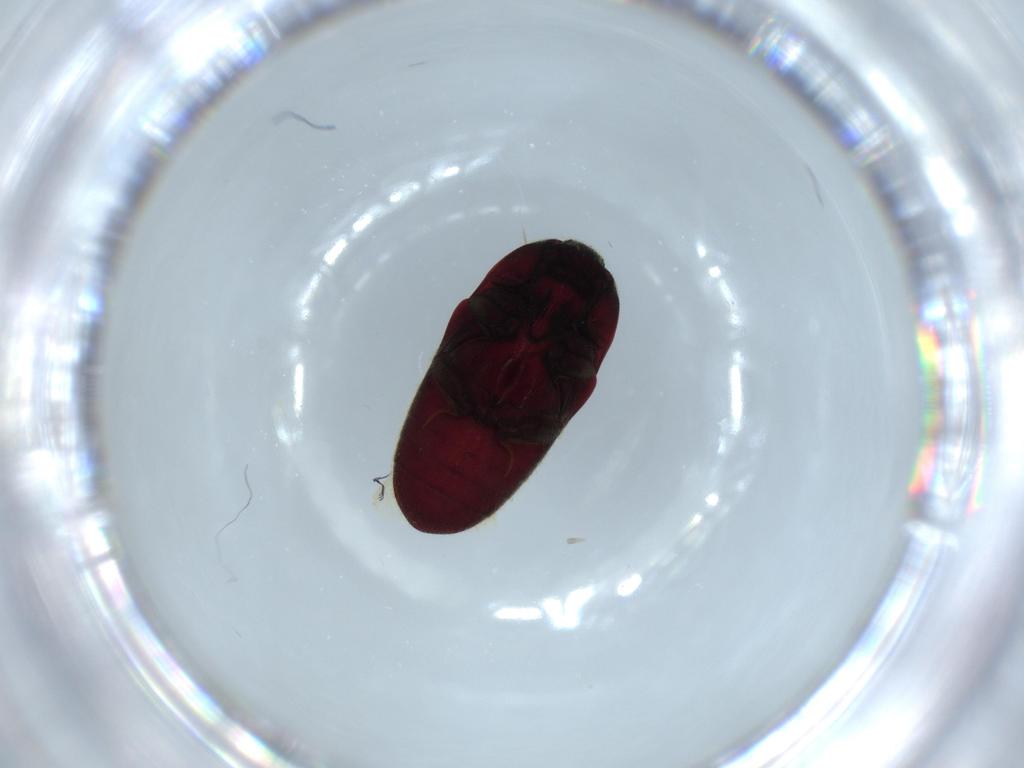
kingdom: Animalia
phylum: Arthropoda
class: Insecta
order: Coleoptera
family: Throscidae
